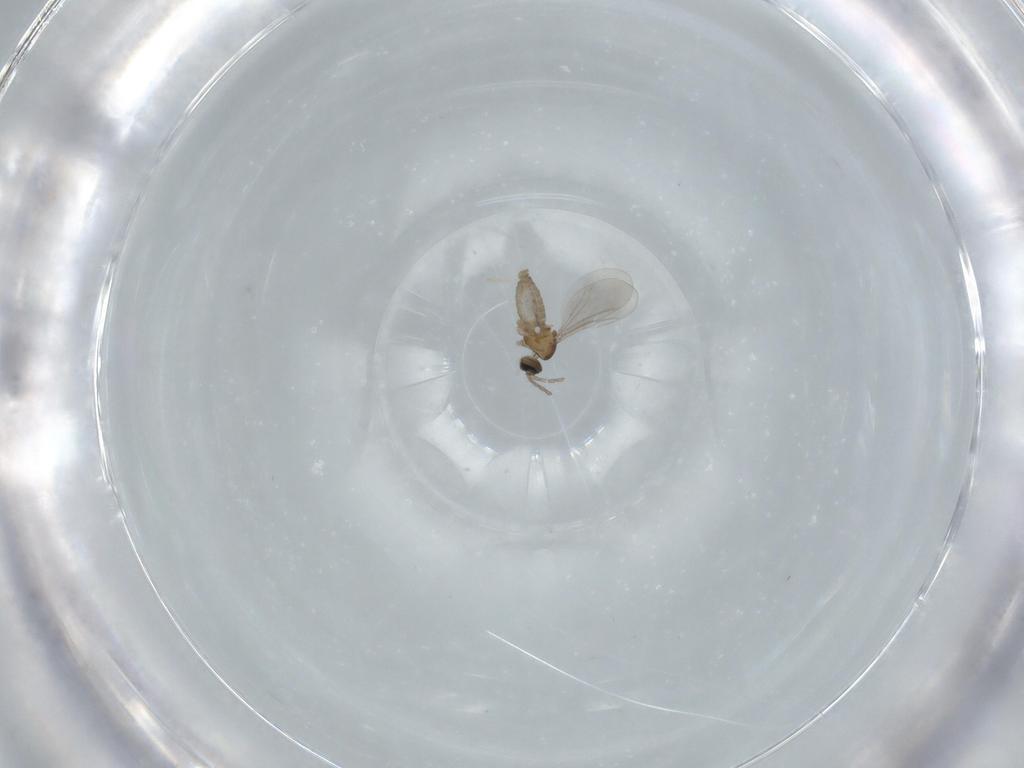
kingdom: Animalia
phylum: Arthropoda
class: Insecta
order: Diptera
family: Cecidomyiidae
